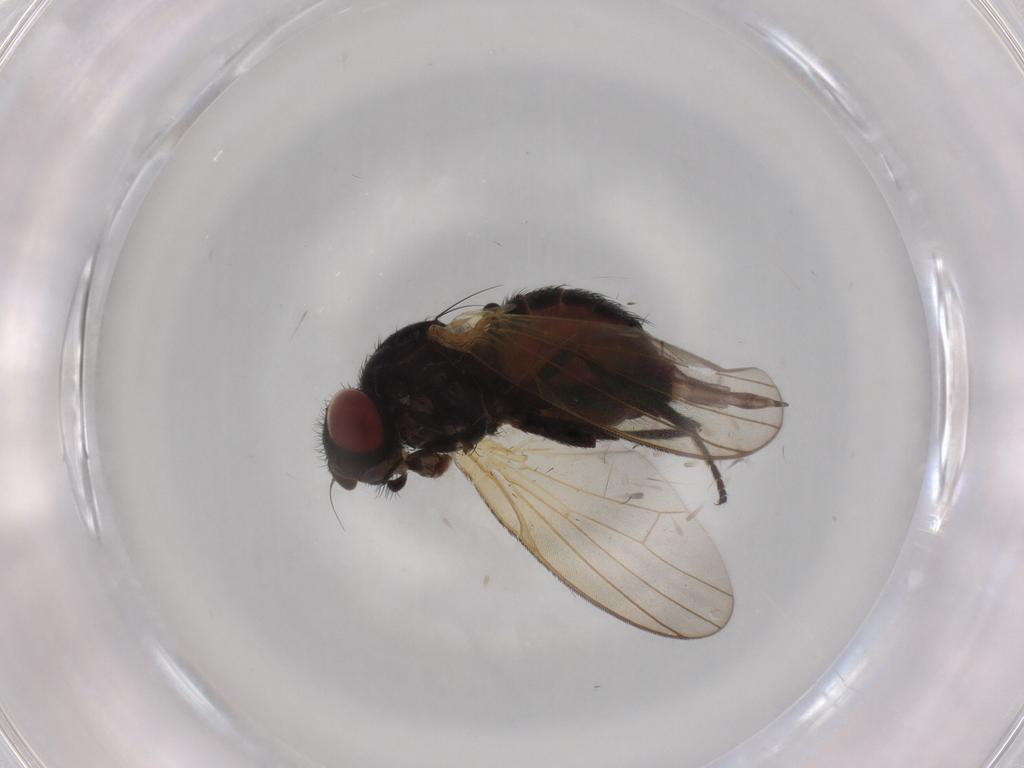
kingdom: Animalia
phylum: Arthropoda
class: Insecta
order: Diptera
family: Lonchaeidae
